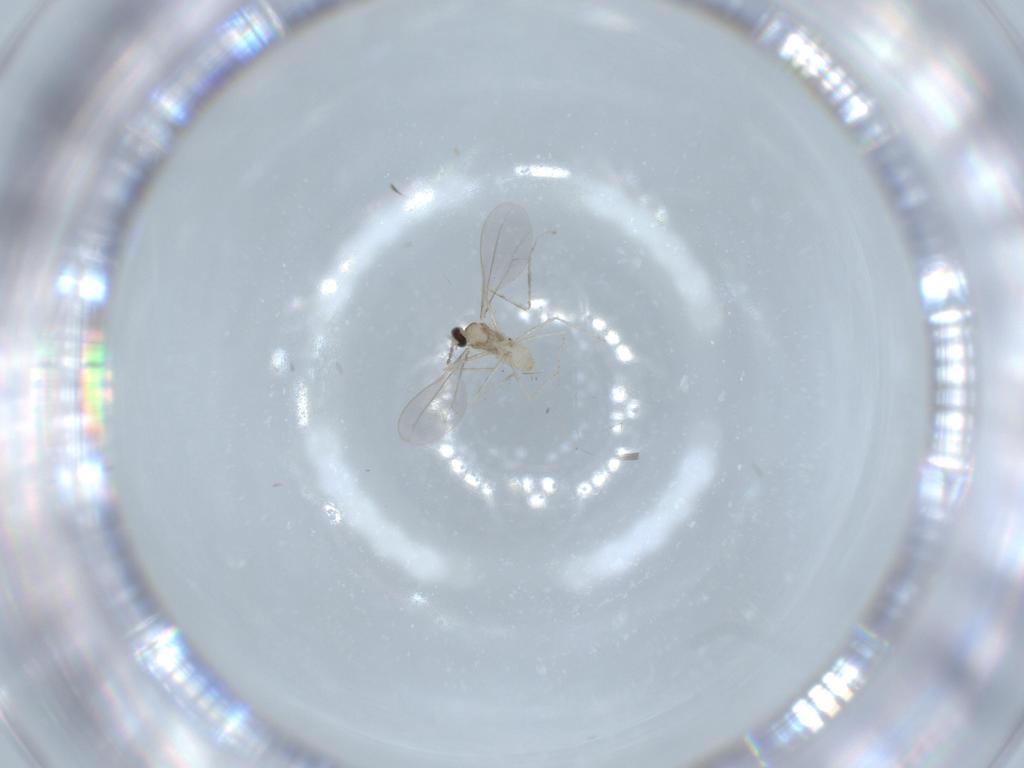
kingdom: Animalia
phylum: Arthropoda
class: Insecta
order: Diptera
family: Cecidomyiidae
